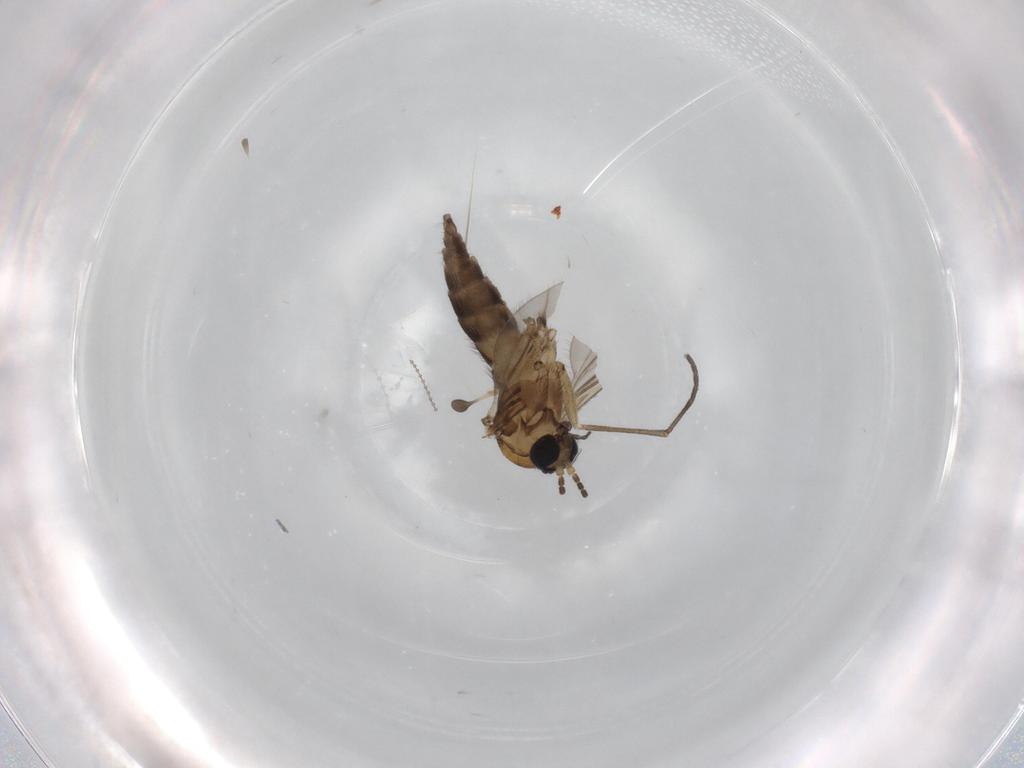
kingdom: Animalia
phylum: Arthropoda
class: Insecta
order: Diptera
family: Sciaridae
